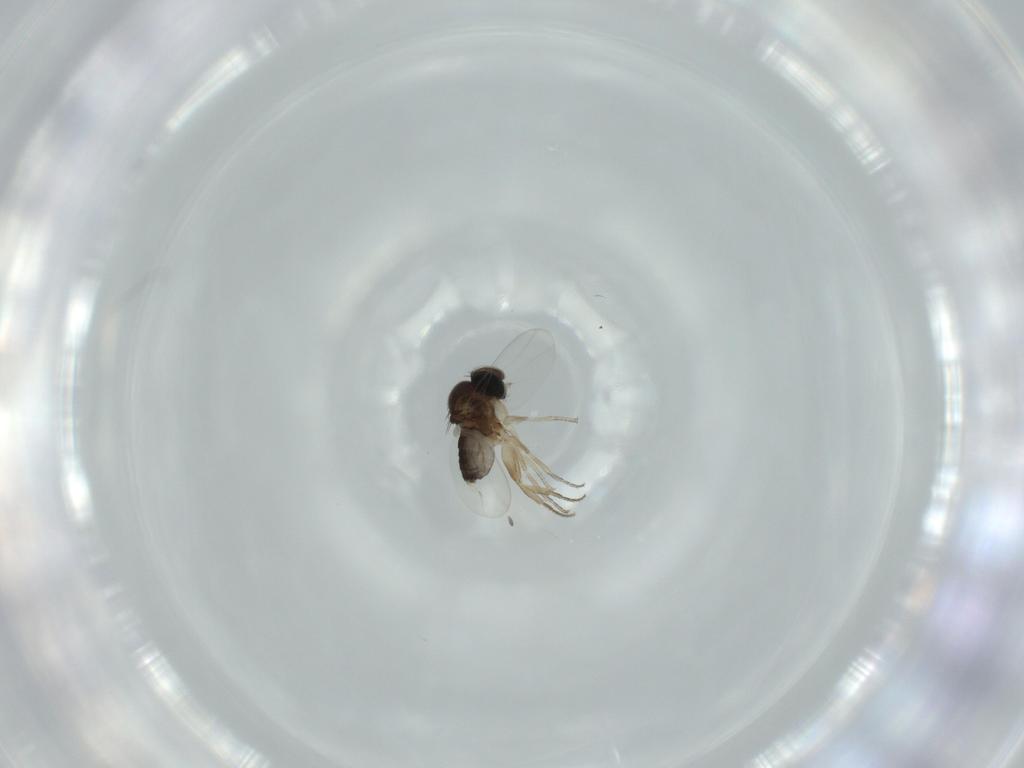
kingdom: Animalia
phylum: Arthropoda
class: Insecta
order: Diptera
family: Phoridae
